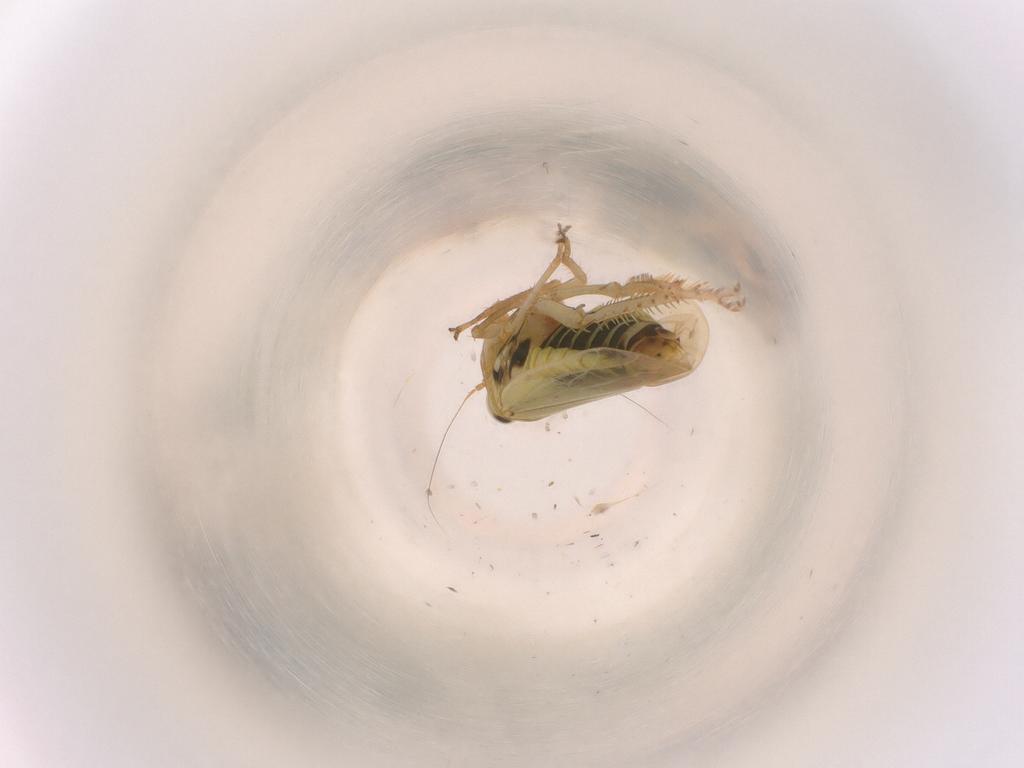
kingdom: Animalia
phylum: Arthropoda
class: Insecta
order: Hemiptera
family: Cicadellidae
